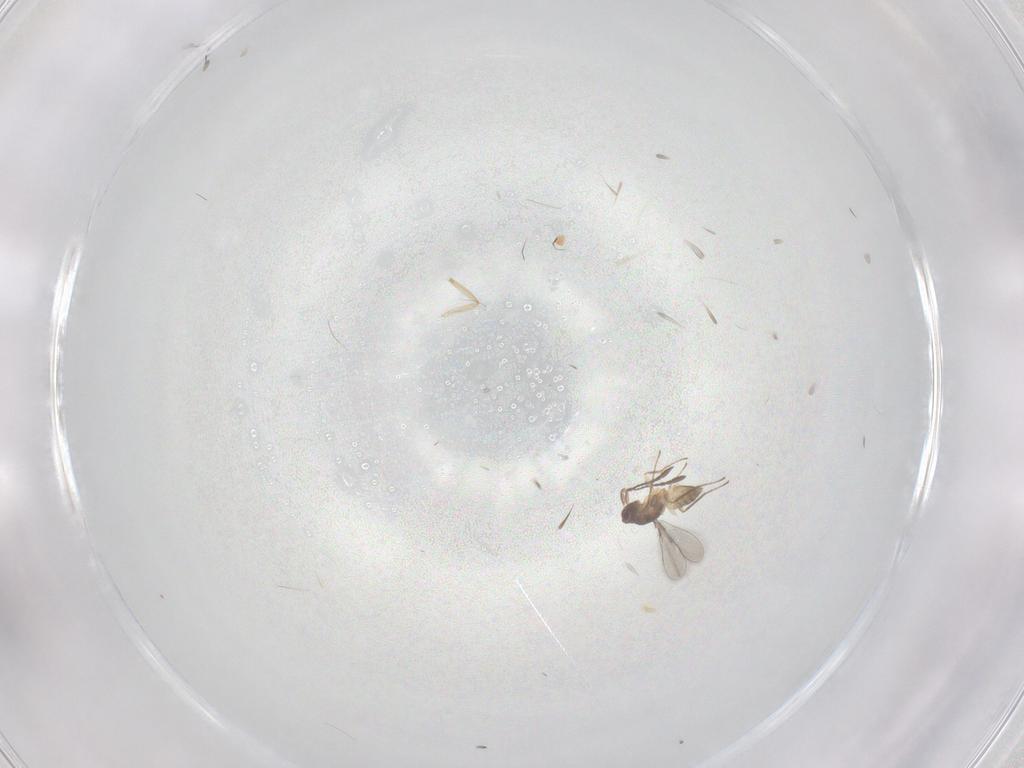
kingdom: Animalia
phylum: Arthropoda
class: Insecta
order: Hymenoptera
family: Mymaridae
